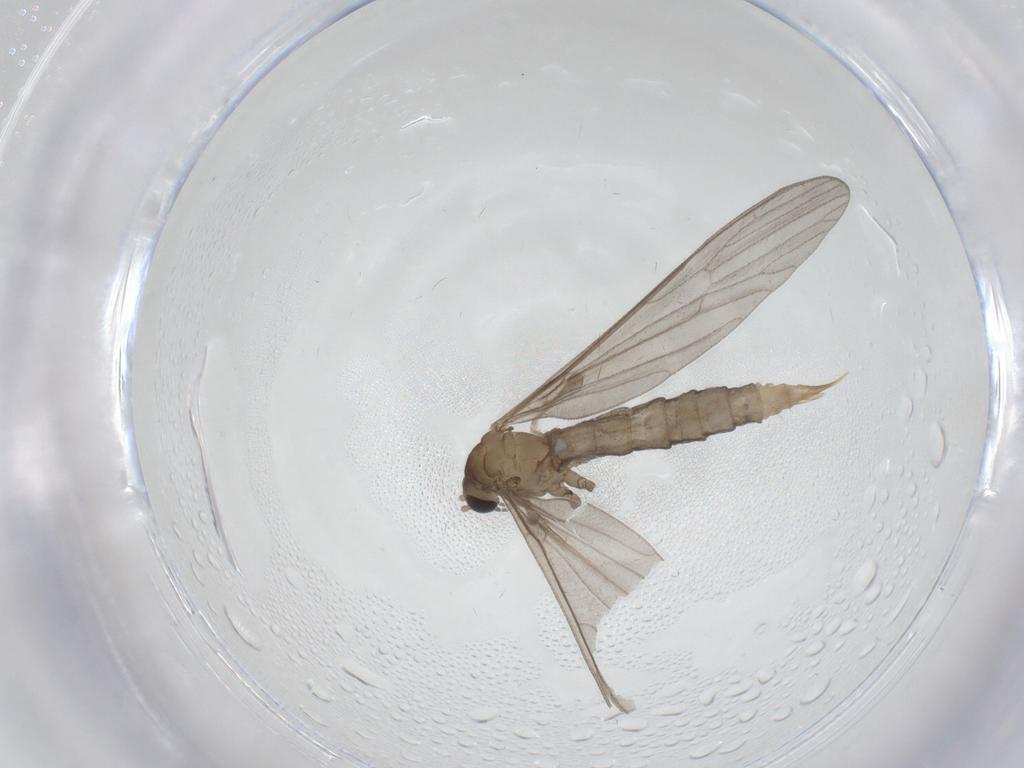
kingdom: Animalia
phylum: Arthropoda
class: Insecta
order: Diptera
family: Limoniidae
